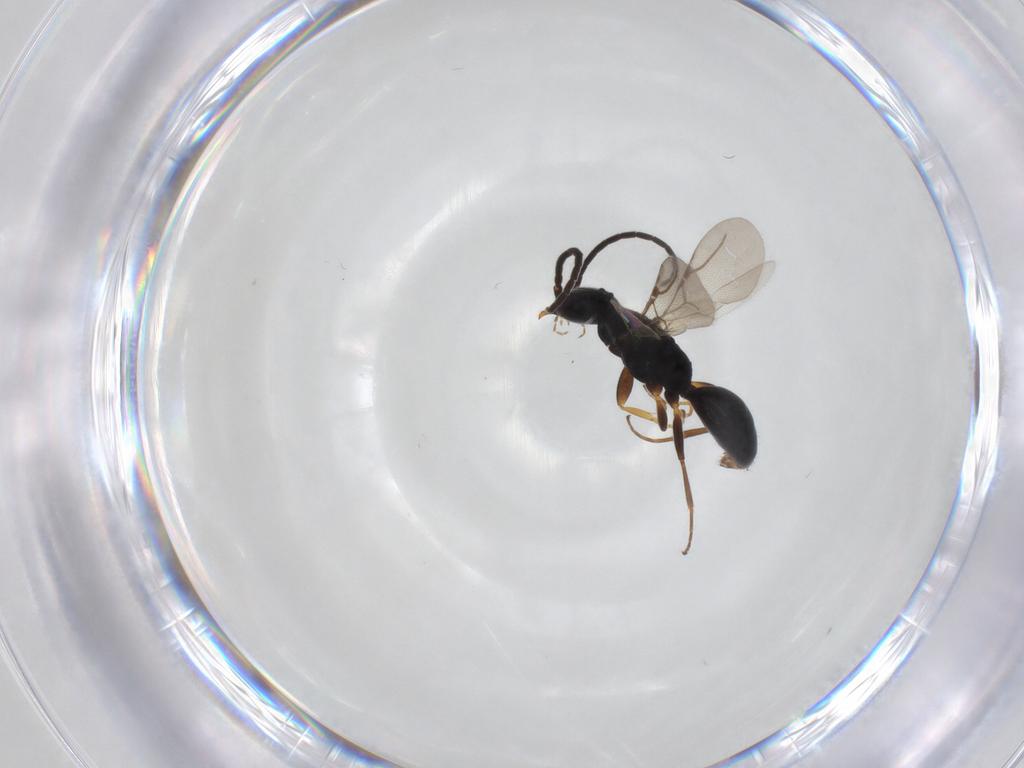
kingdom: Animalia
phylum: Arthropoda
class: Insecta
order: Hymenoptera
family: Bethylidae
